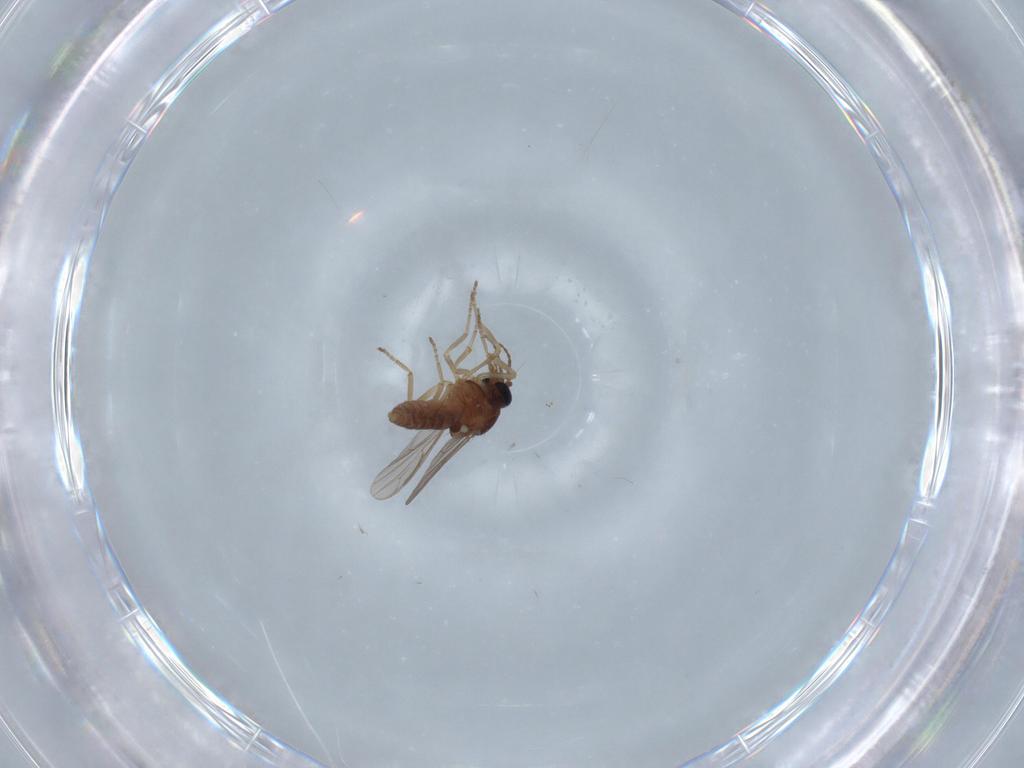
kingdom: Animalia
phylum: Arthropoda
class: Insecta
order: Diptera
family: Ceratopogonidae
